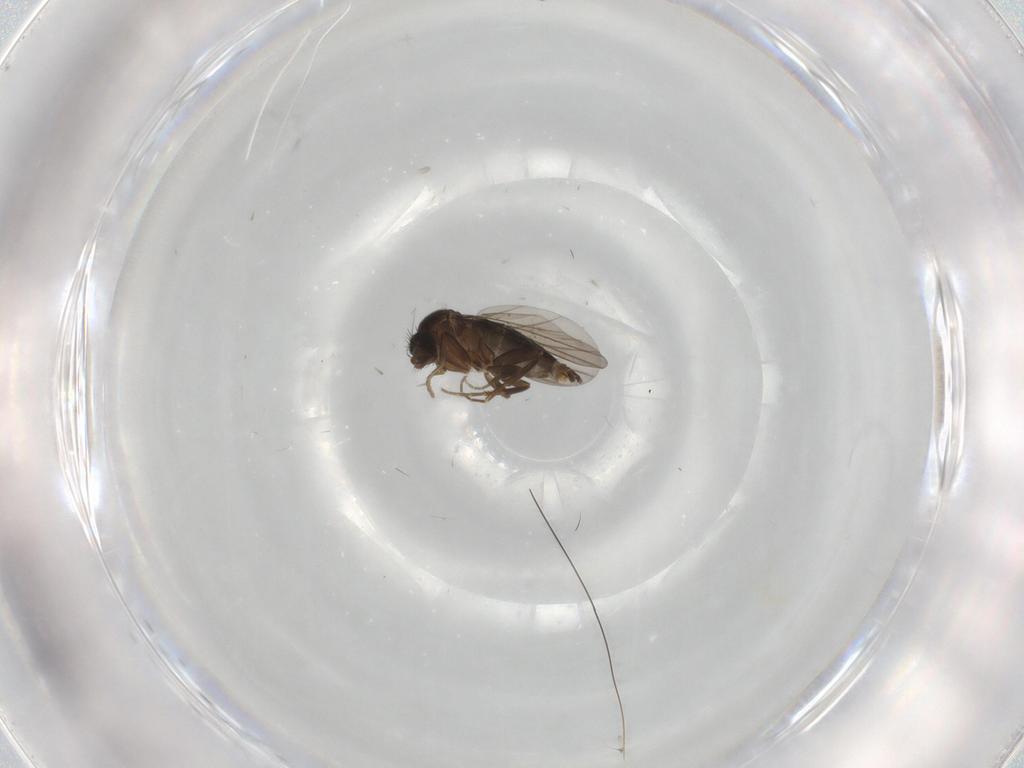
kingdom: Animalia
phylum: Arthropoda
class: Insecta
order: Diptera
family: Phoridae
